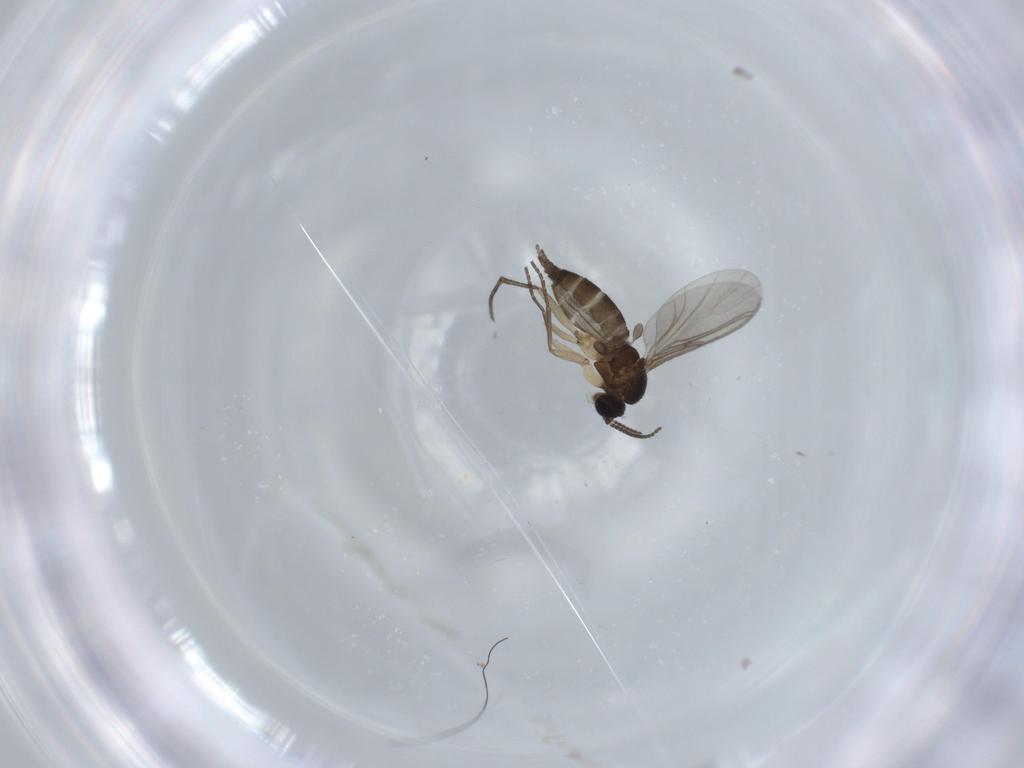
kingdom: Animalia
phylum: Arthropoda
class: Insecta
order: Diptera
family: Sciaridae
